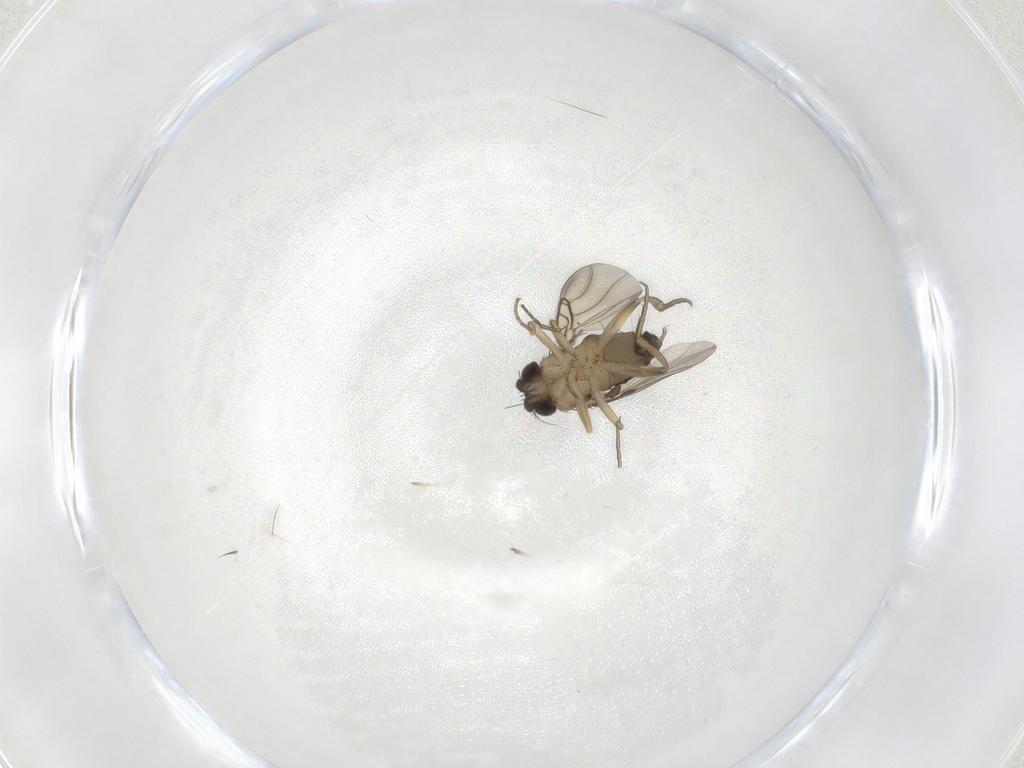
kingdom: Animalia
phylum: Arthropoda
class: Insecta
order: Diptera
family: Phoridae
